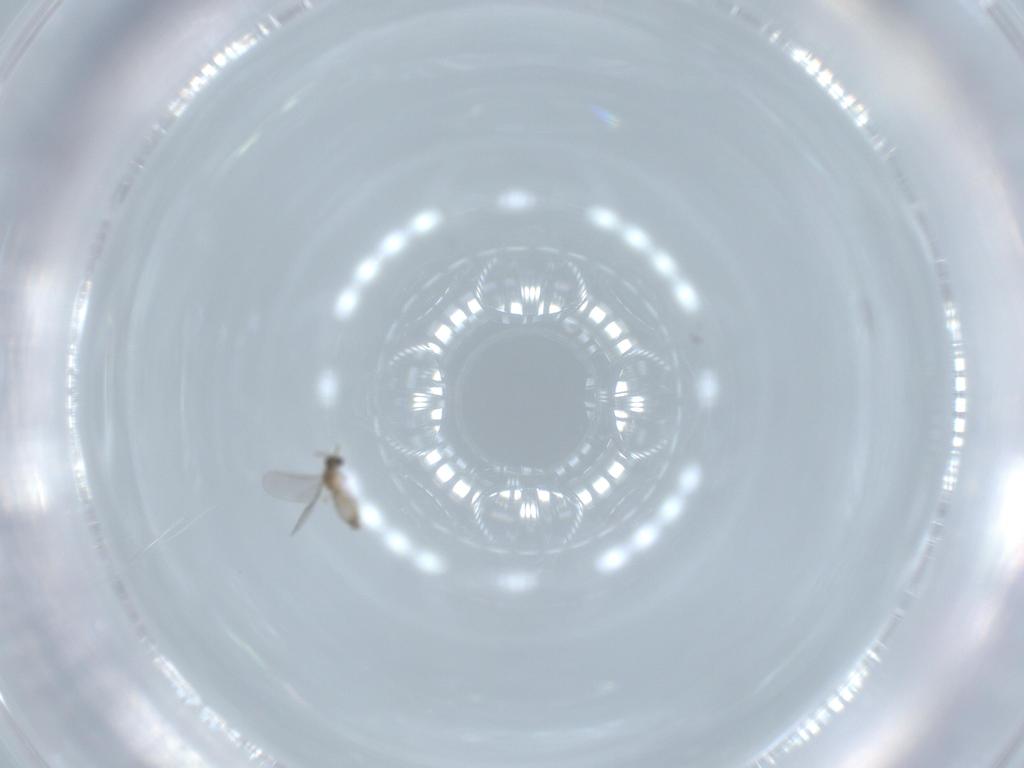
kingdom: Animalia
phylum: Arthropoda
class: Insecta
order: Diptera
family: Cecidomyiidae
